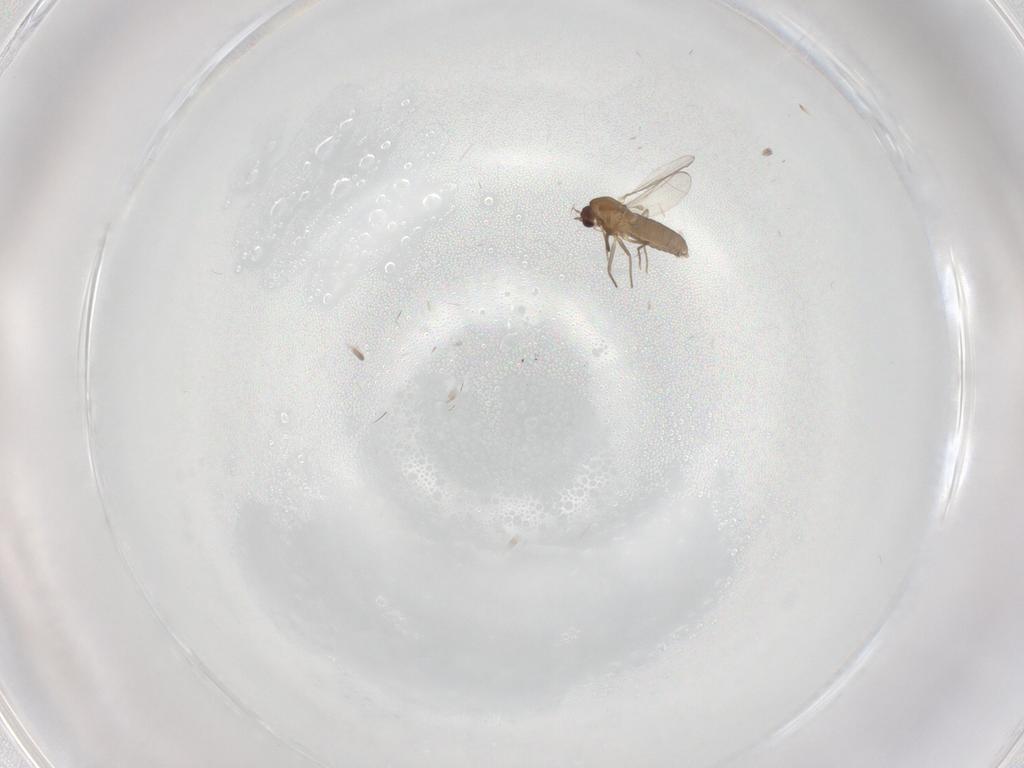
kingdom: Animalia
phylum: Arthropoda
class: Insecta
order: Diptera
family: Chironomidae
